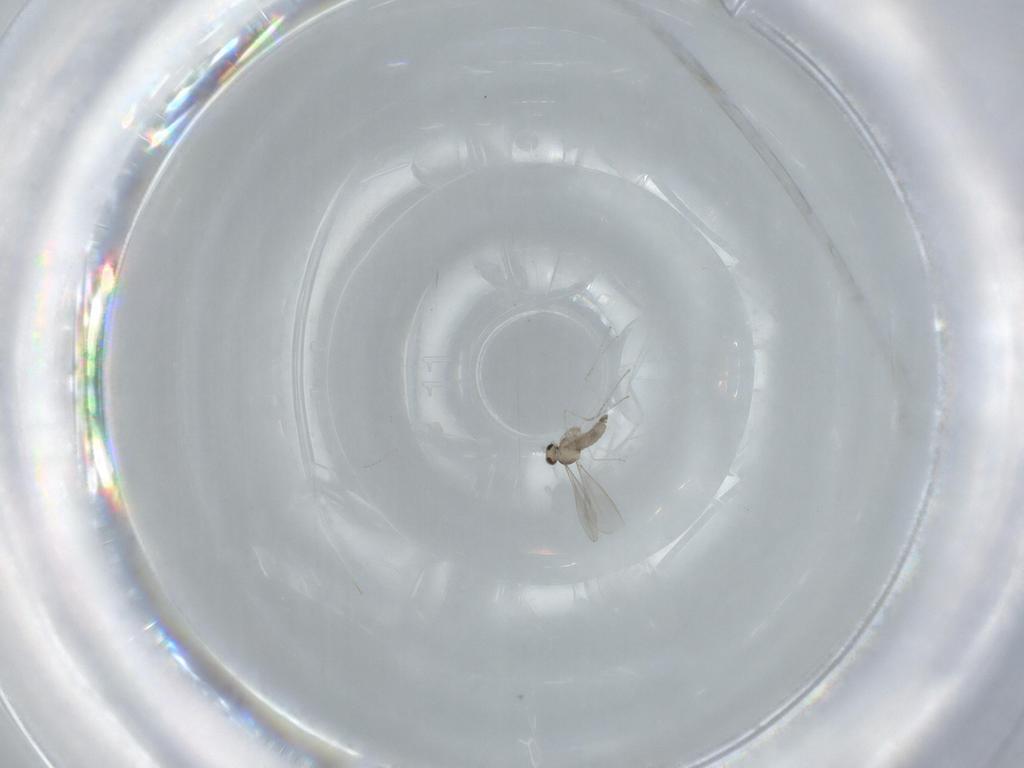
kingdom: Animalia
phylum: Arthropoda
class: Insecta
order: Diptera
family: Cecidomyiidae
